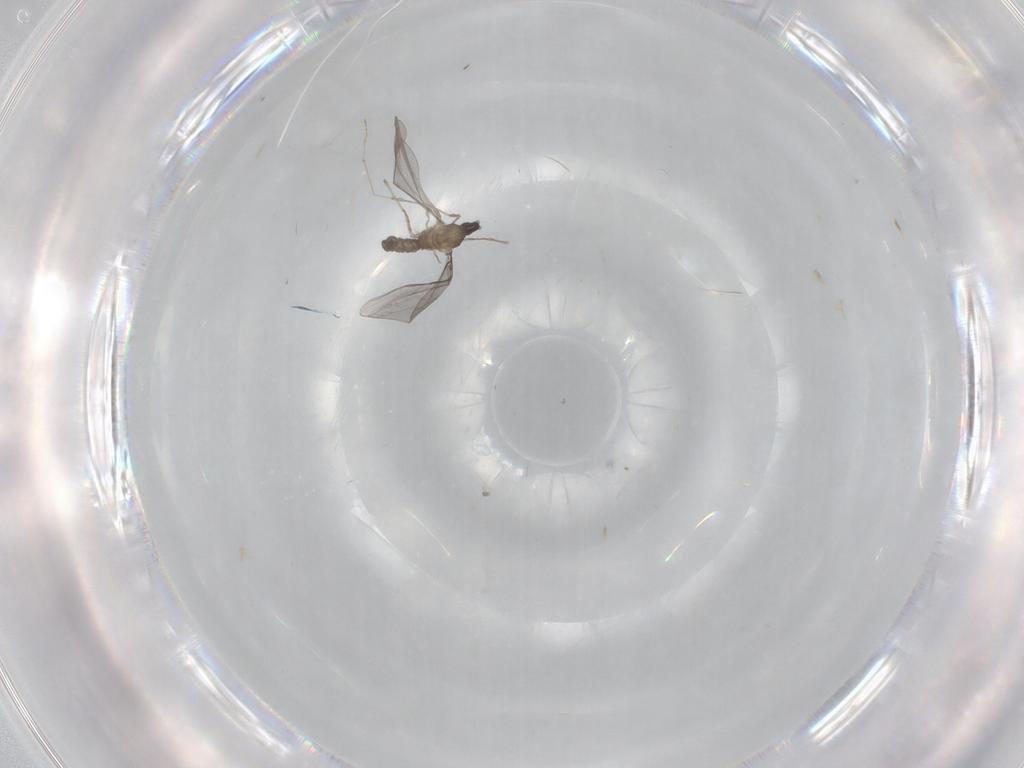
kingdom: Animalia
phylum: Arthropoda
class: Insecta
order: Diptera
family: Cecidomyiidae
